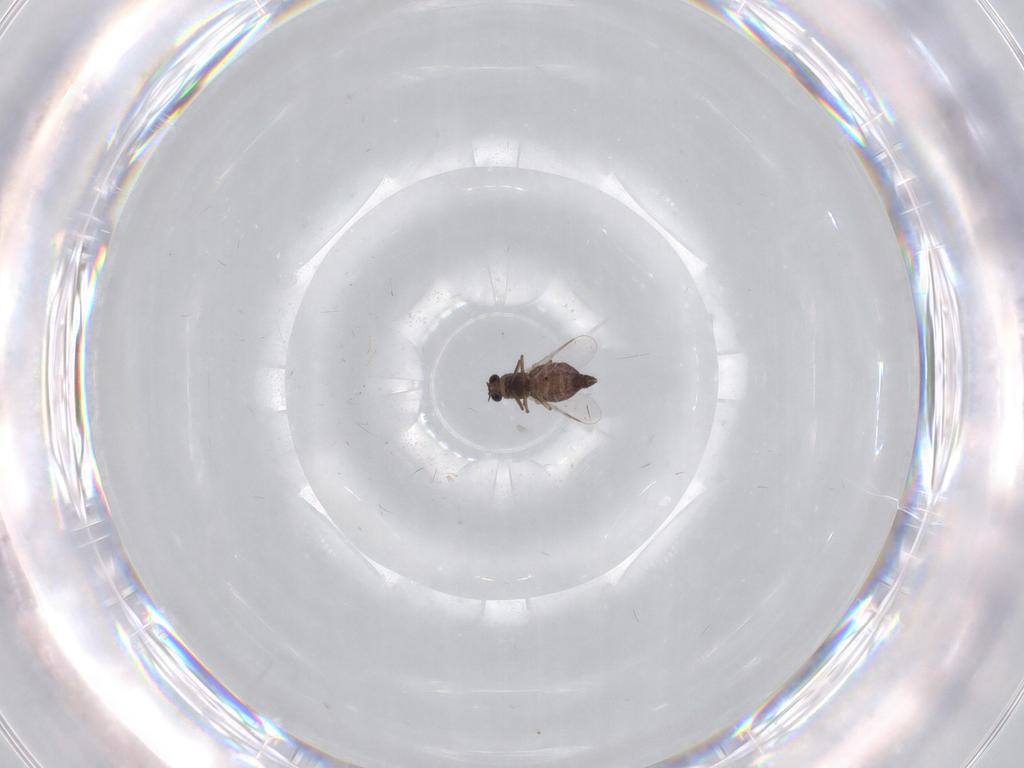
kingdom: Animalia
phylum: Arthropoda
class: Insecta
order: Diptera
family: Chironomidae
